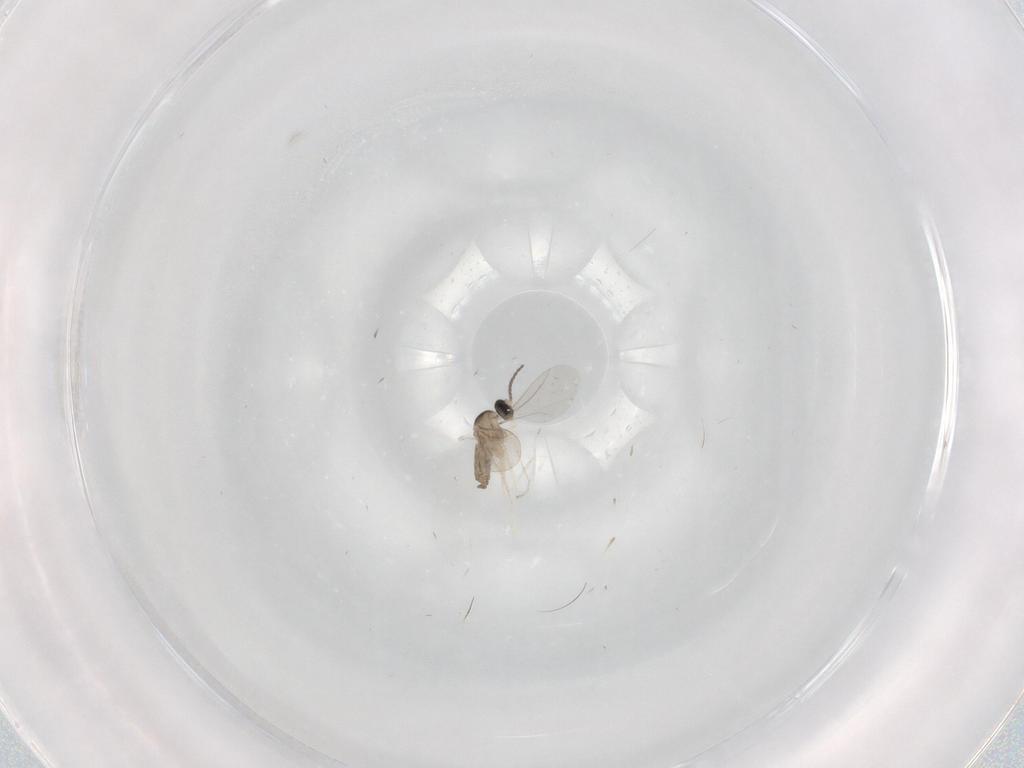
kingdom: Animalia
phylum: Arthropoda
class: Insecta
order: Diptera
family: Cecidomyiidae
